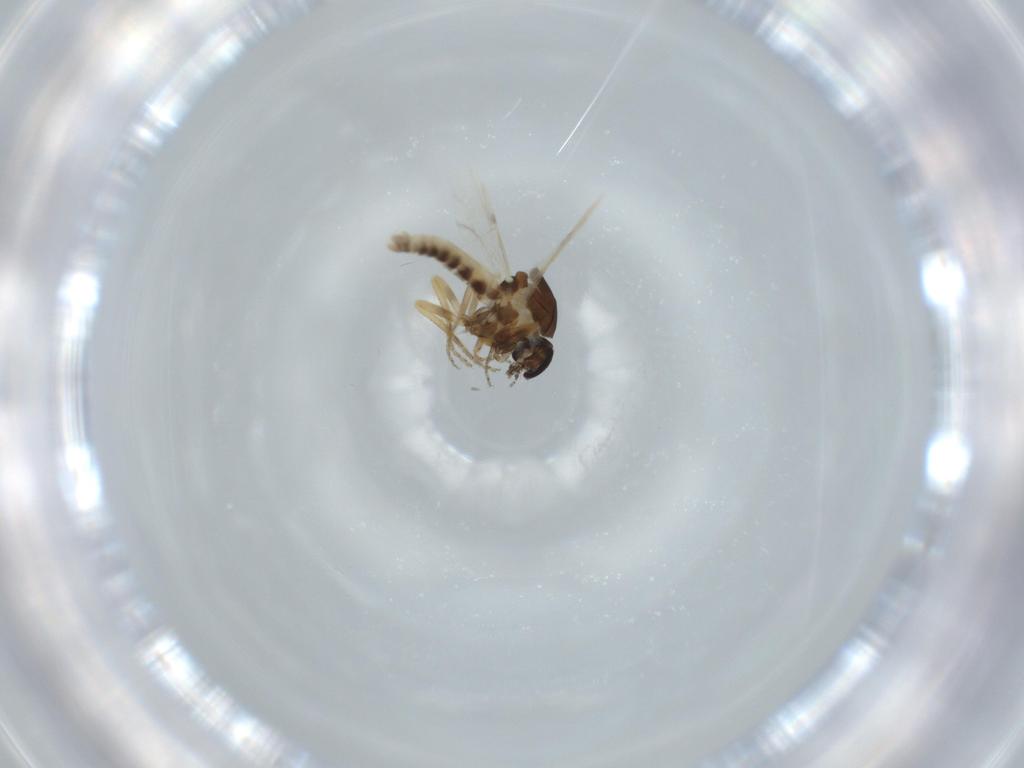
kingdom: Animalia
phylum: Arthropoda
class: Insecta
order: Diptera
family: Ceratopogonidae
